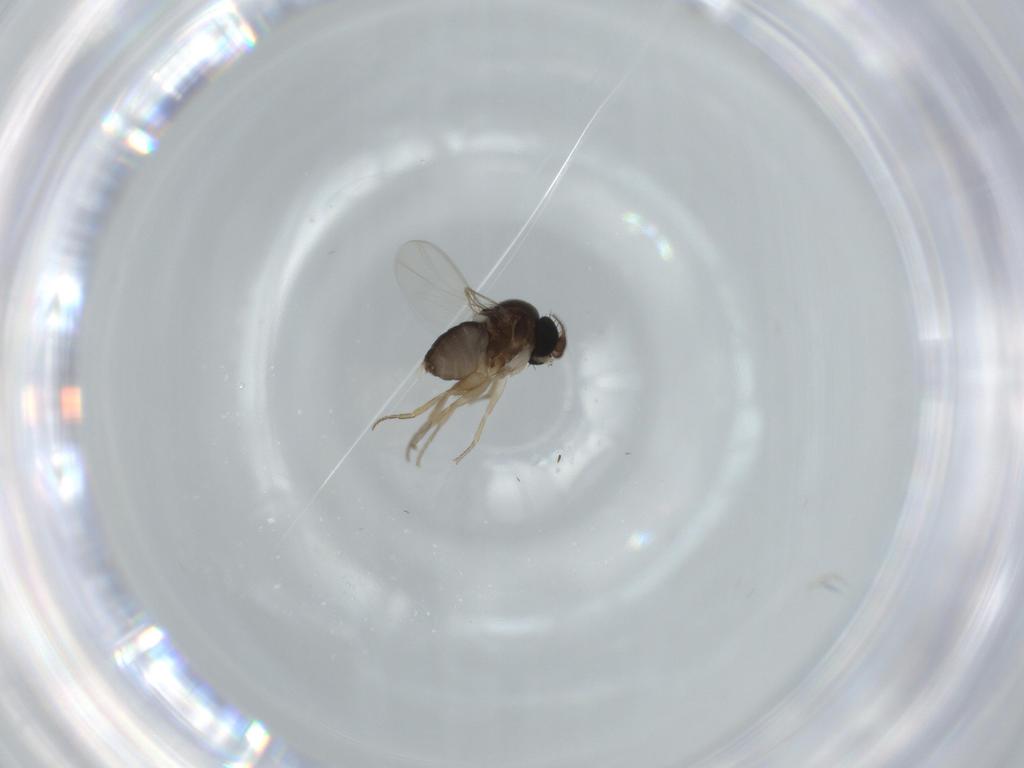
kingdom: Animalia
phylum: Arthropoda
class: Insecta
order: Diptera
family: Phoridae
